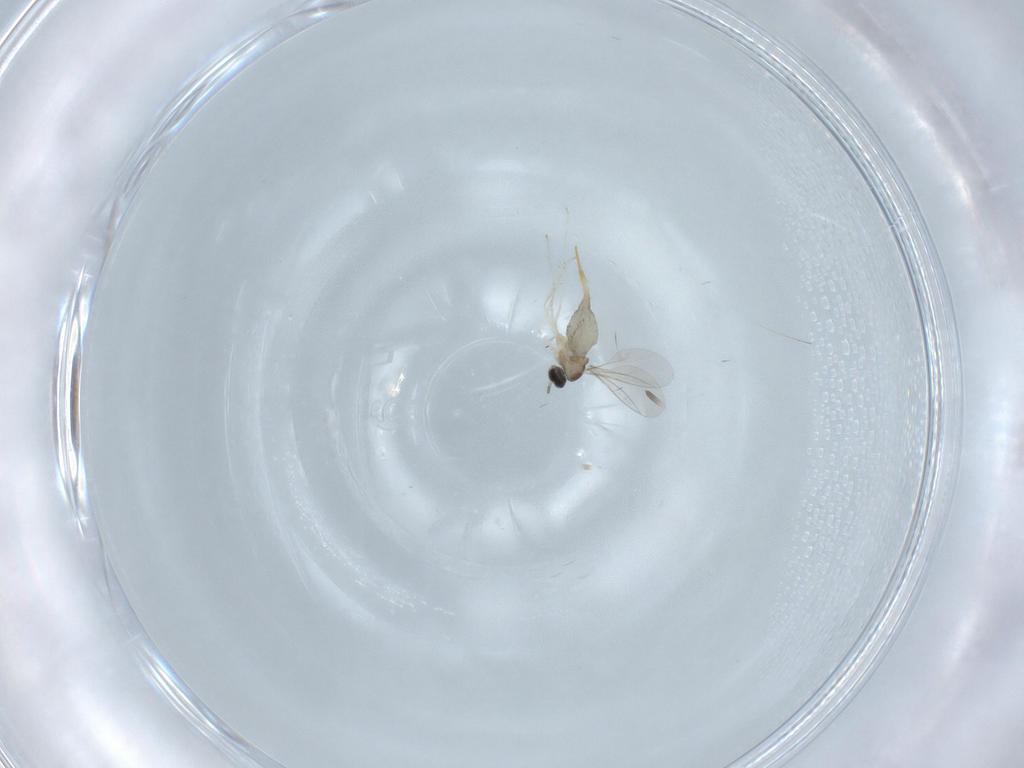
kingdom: Animalia
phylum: Arthropoda
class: Insecta
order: Diptera
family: Cecidomyiidae
